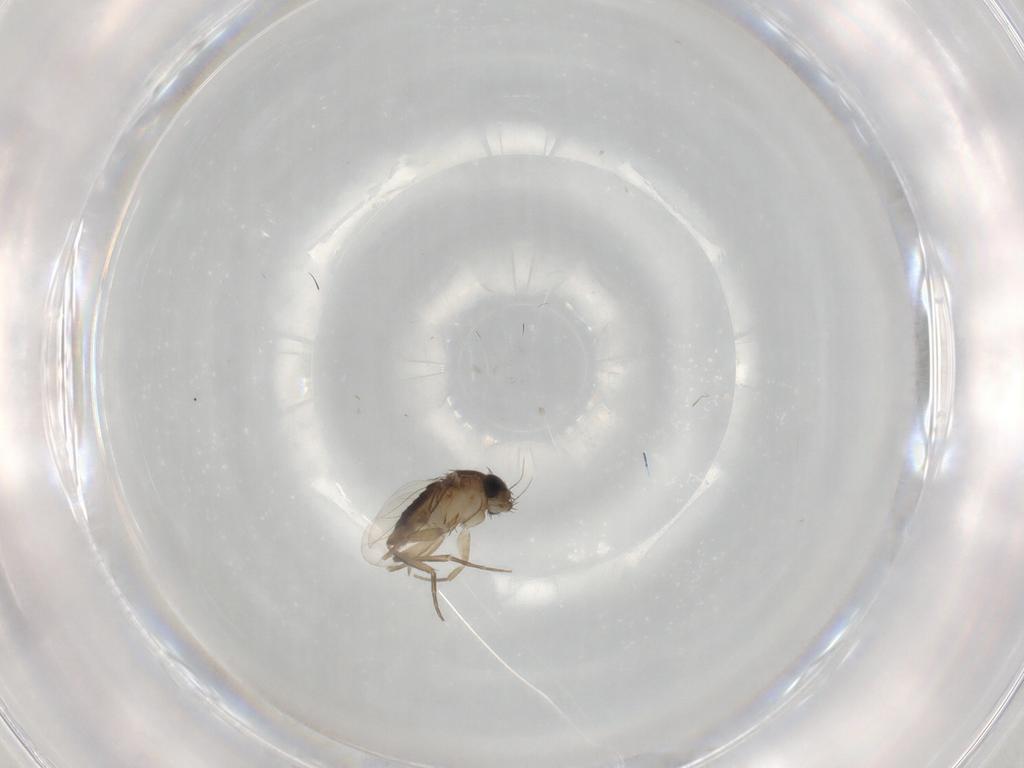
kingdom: Animalia
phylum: Arthropoda
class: Insecta
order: Diptera
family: Phoridae
